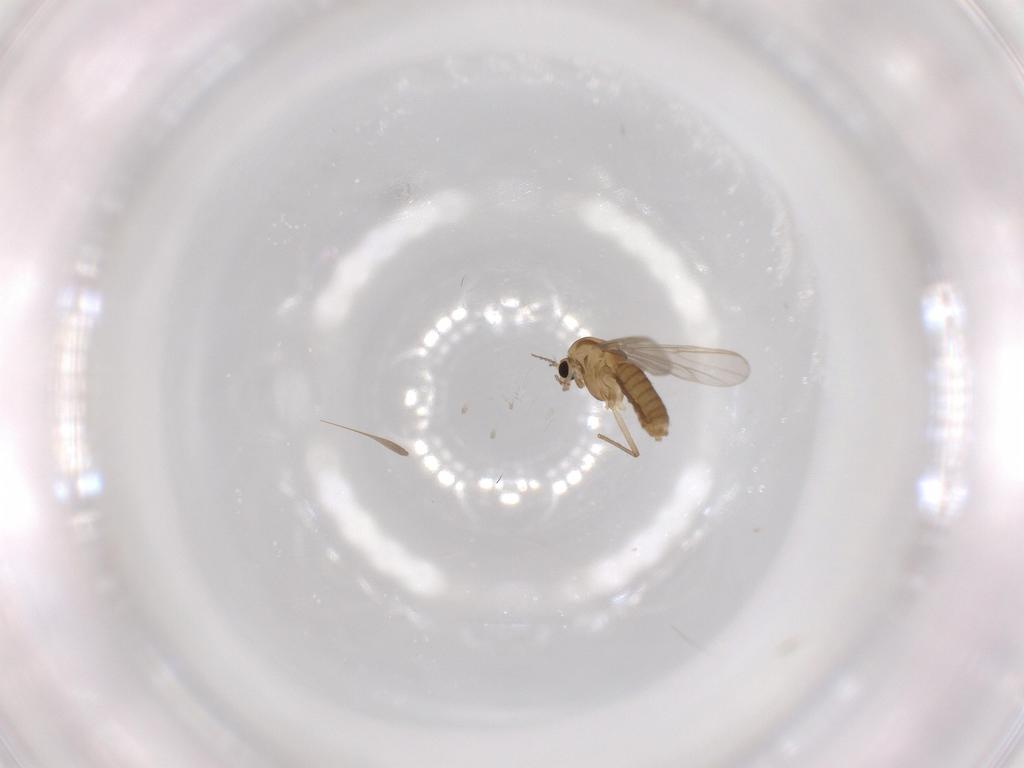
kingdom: Animalia
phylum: Arthropoda
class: Insecta
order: Diptera
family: Chironomidae
